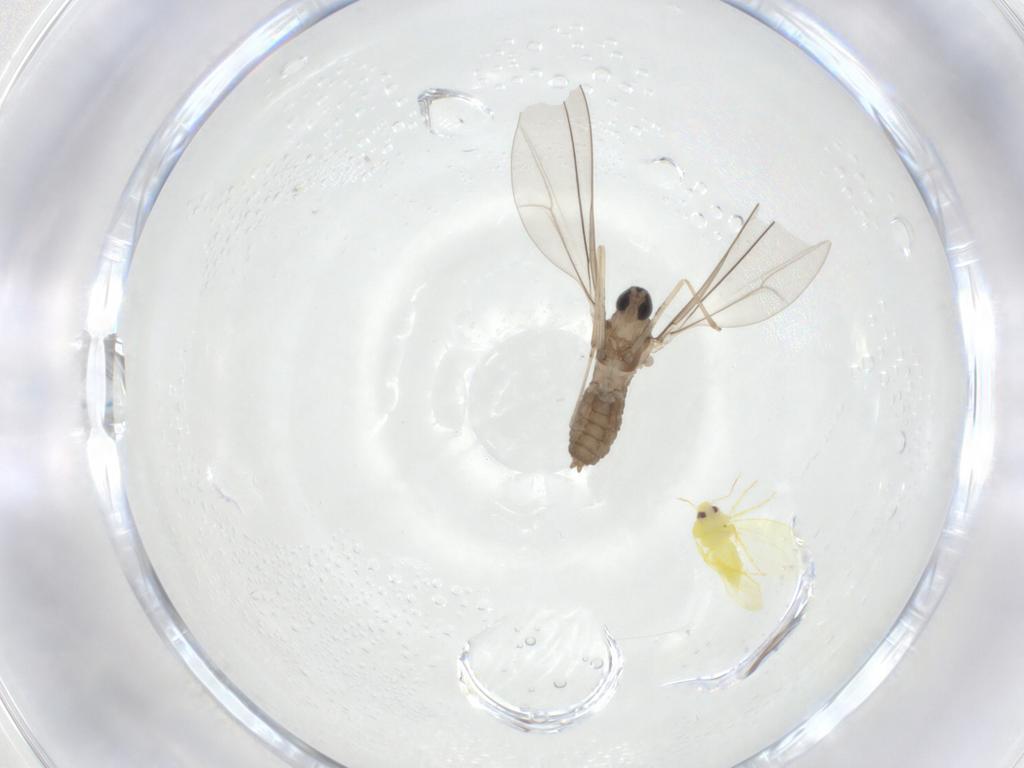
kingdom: Animalia
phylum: Arthropoda
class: Insecta
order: Diptera
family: Cecidomyiidae
